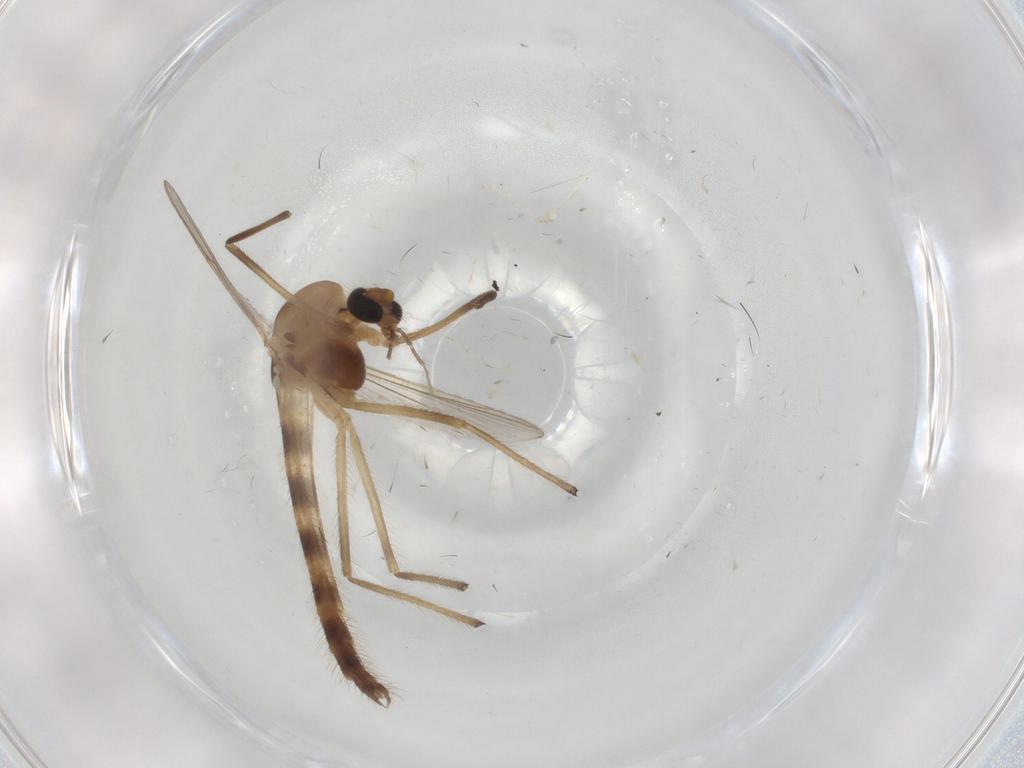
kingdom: Animalia
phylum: Arthropoda
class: Insecta
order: Diptera
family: Chironomidae
